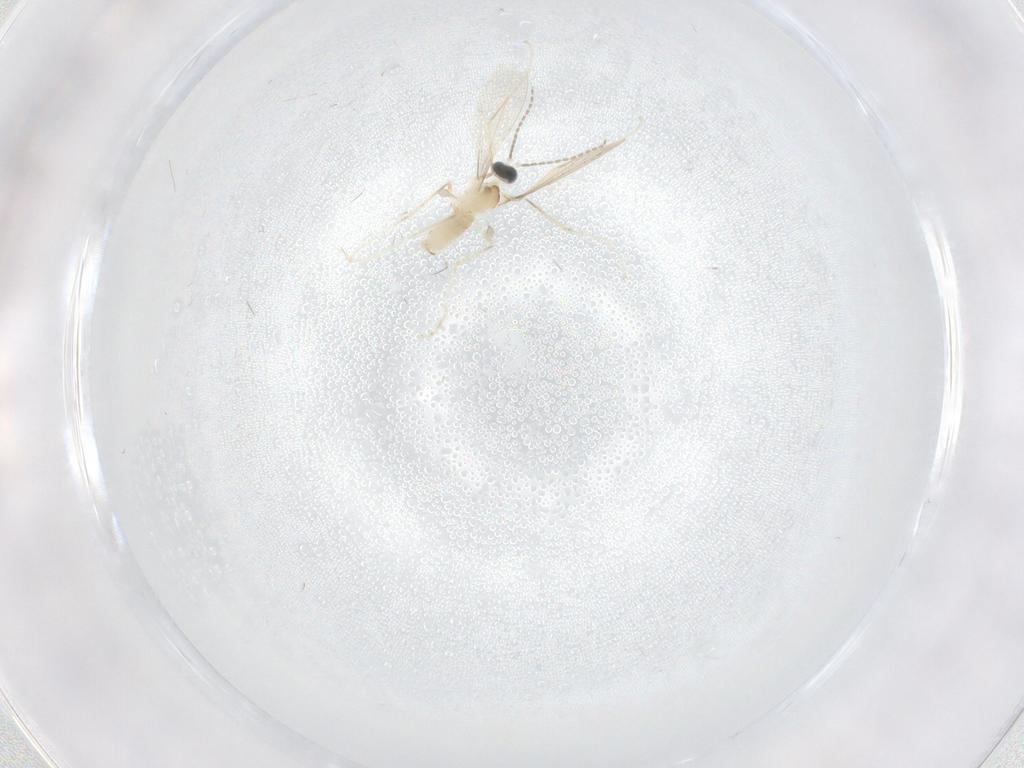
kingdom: Animalia
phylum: Arthropoda
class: Insecta
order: Diptera
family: Cecidomyiidae
